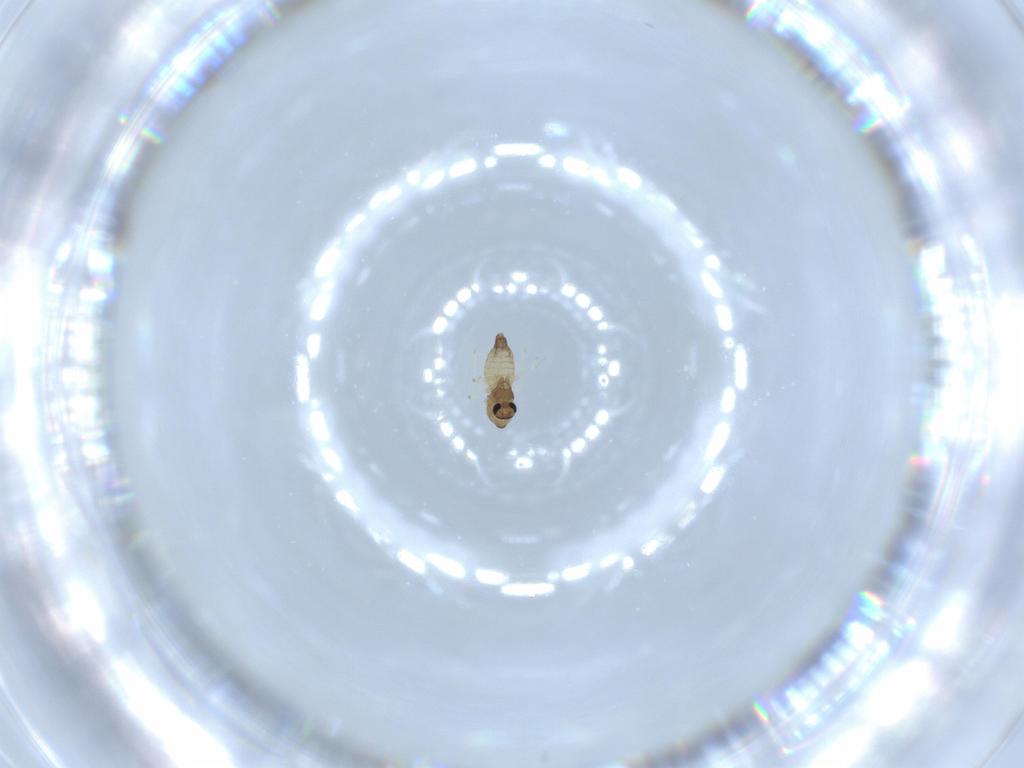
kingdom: Animalia
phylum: Arthropoda
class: Insecta
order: Diptera
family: Chironomidae
